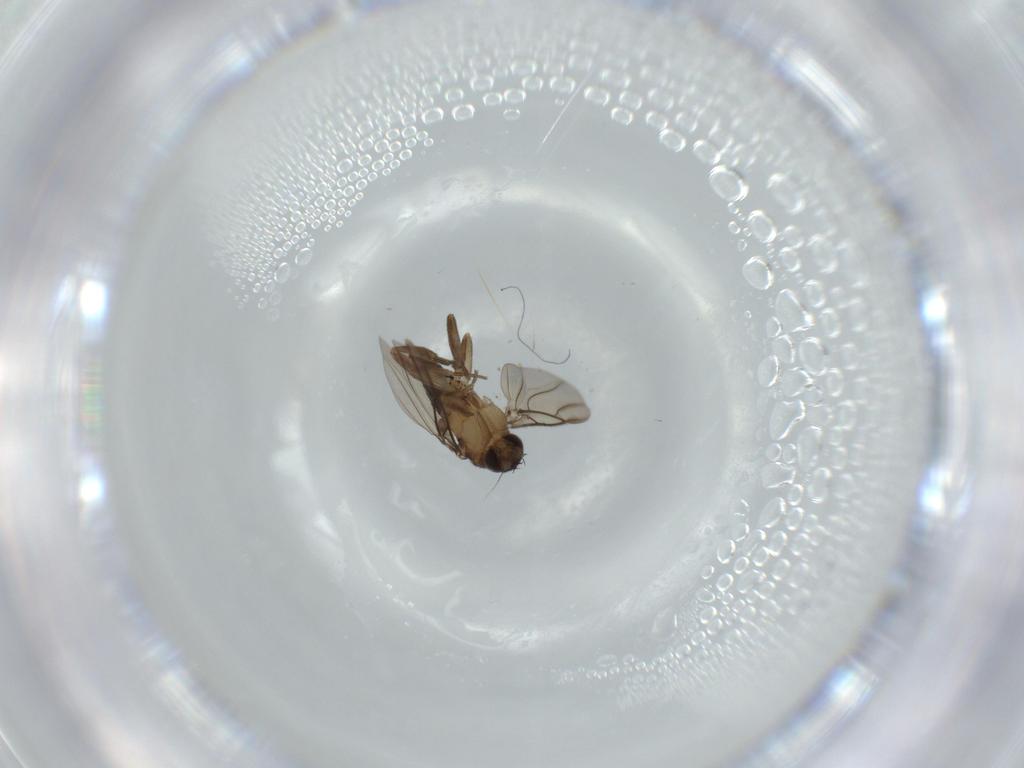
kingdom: Animalia
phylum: Arthropoda
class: Insecta
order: Diptera
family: Phoridae
